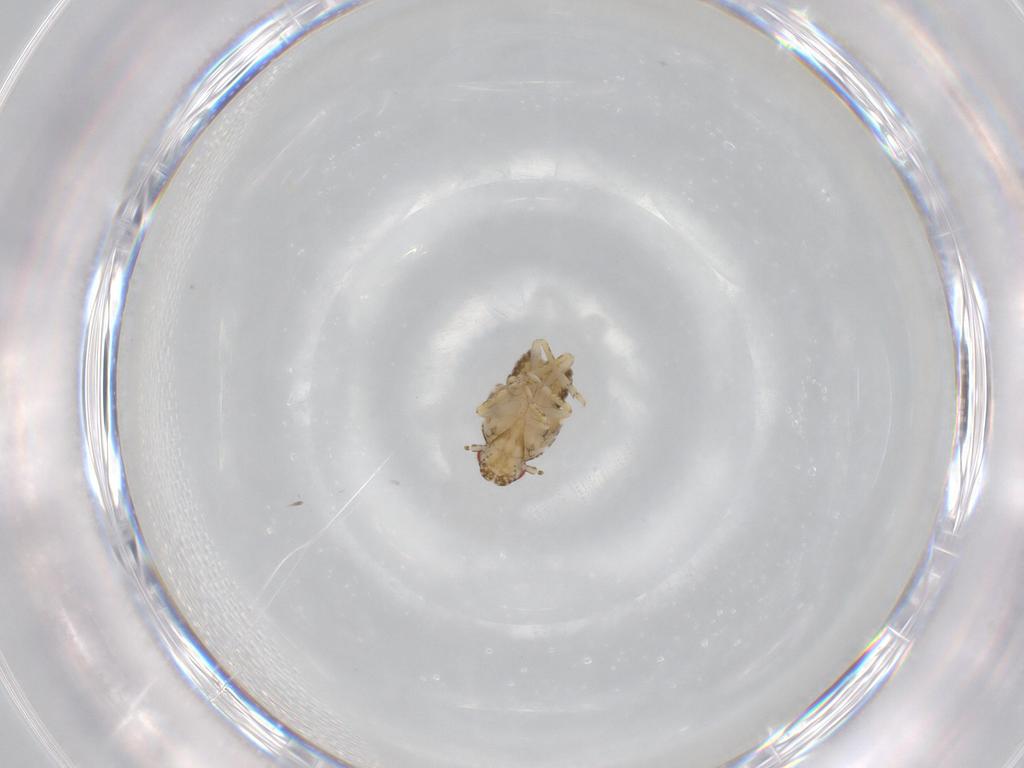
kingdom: Animalia
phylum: Arthropoda
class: Insecta
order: Hemiptera
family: Flatidae
